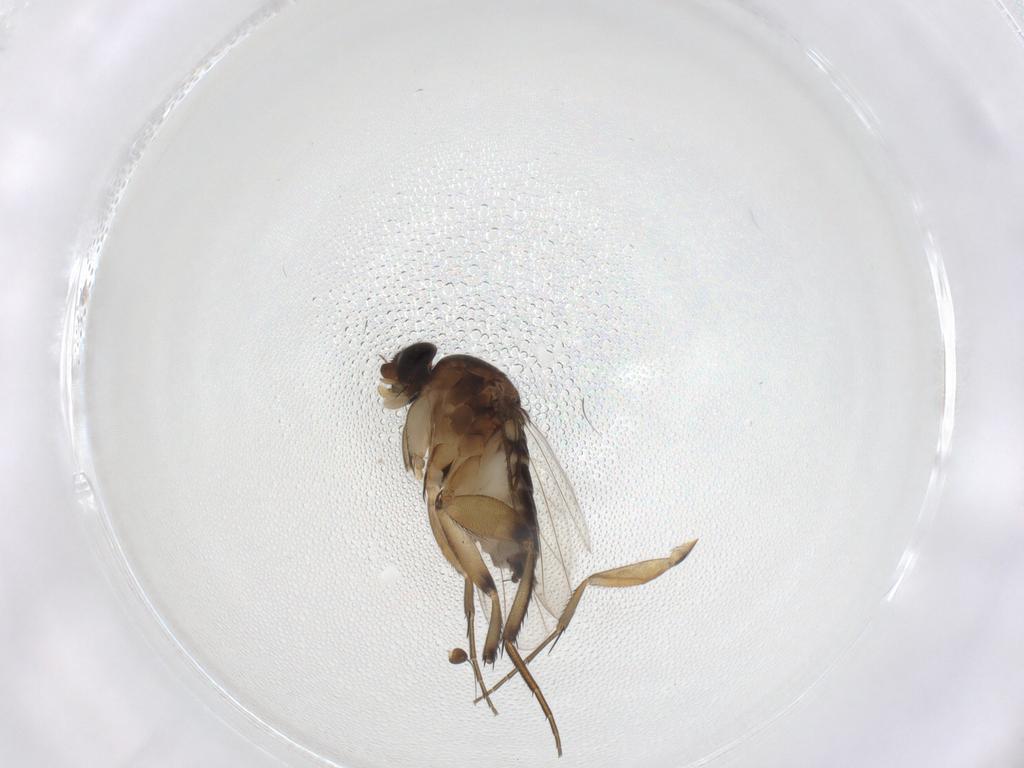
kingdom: Animalia
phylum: Arthropoda
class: Insecta
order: Diptera
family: Phoridae
